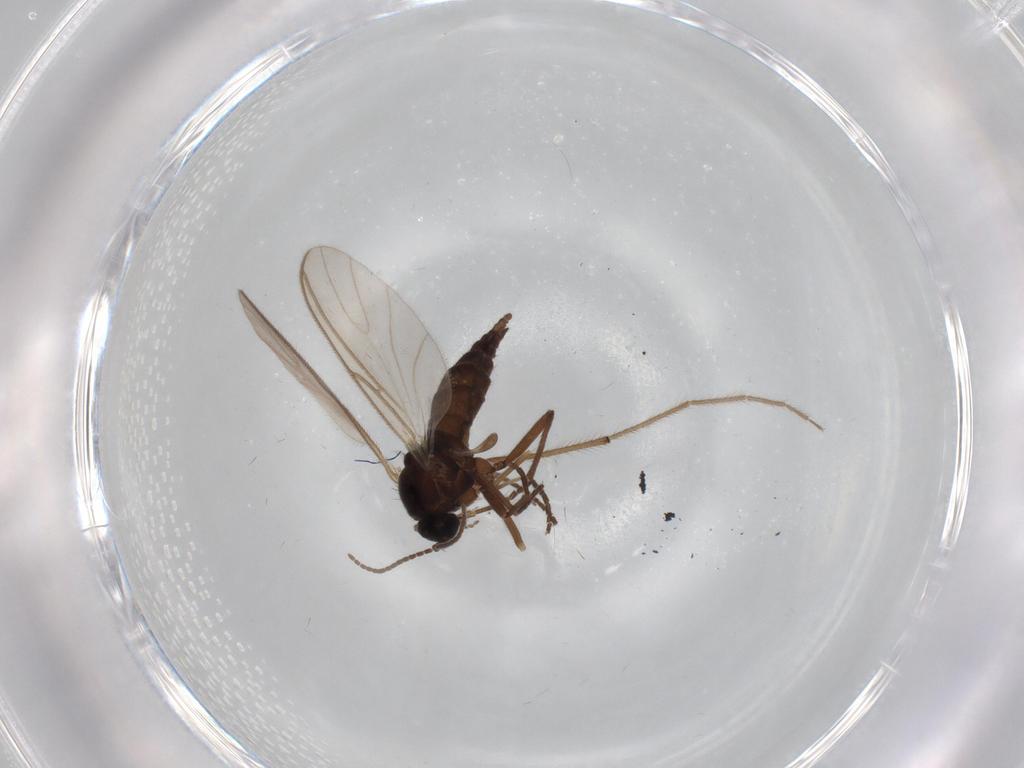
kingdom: Animalia
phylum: Arthropoda
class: Insecta
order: Diptera
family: Sciaridae
